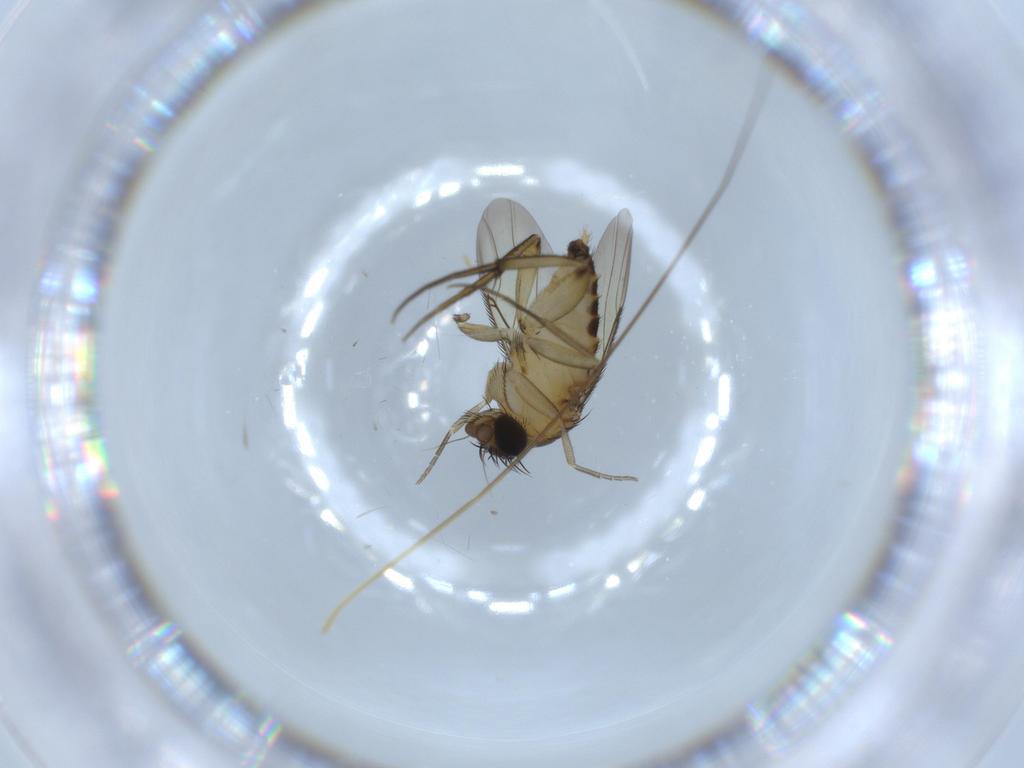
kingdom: Animalia
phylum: Arthropoda
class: Insecta
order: Diptera
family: Phoridae
